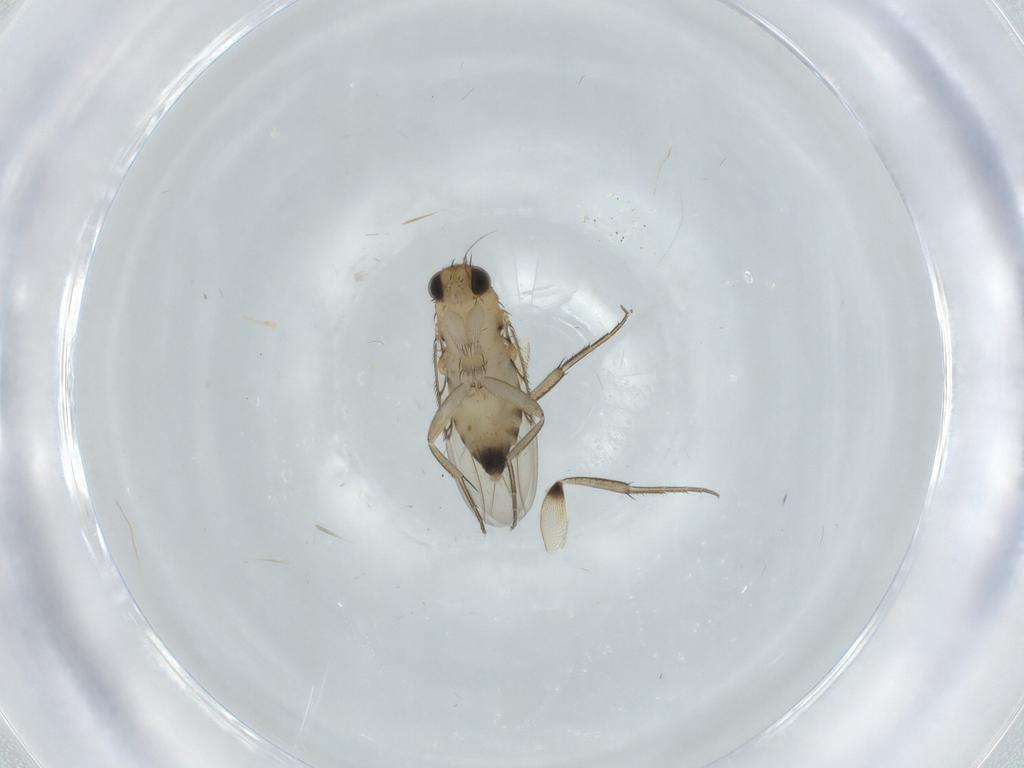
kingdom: Animalia
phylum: Arthropoda
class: Insecta
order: Diptera
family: Phoridae
